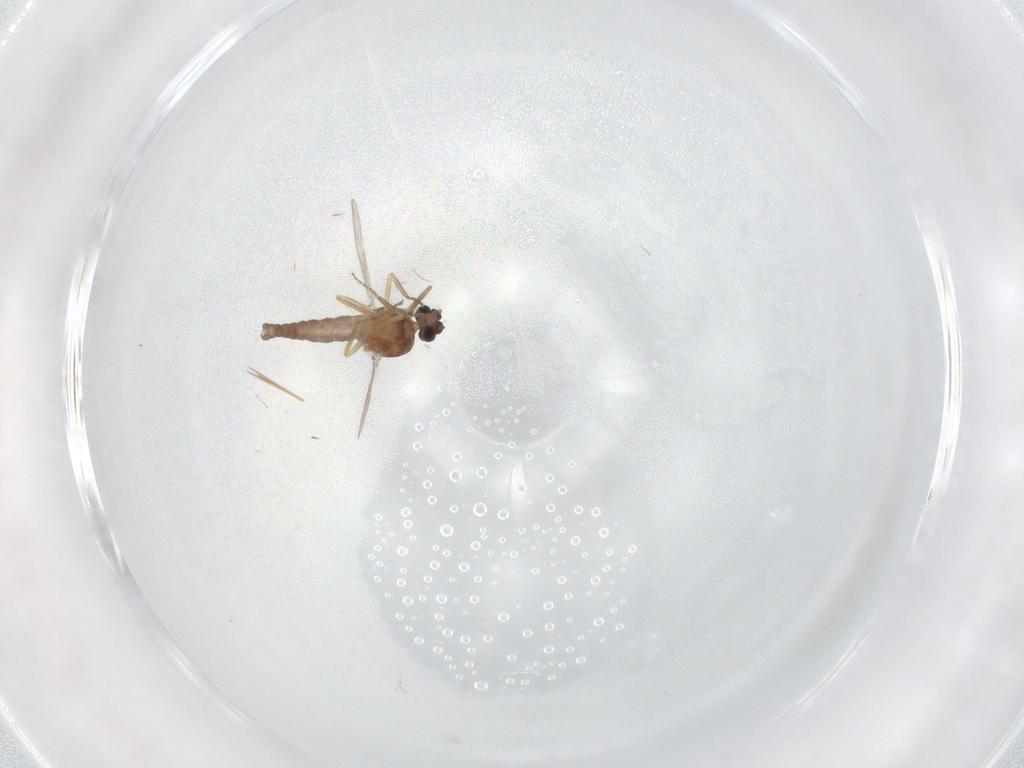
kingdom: Animalia
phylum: Arthropoda
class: Insecta
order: Diptera
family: Ceratopogonidae
